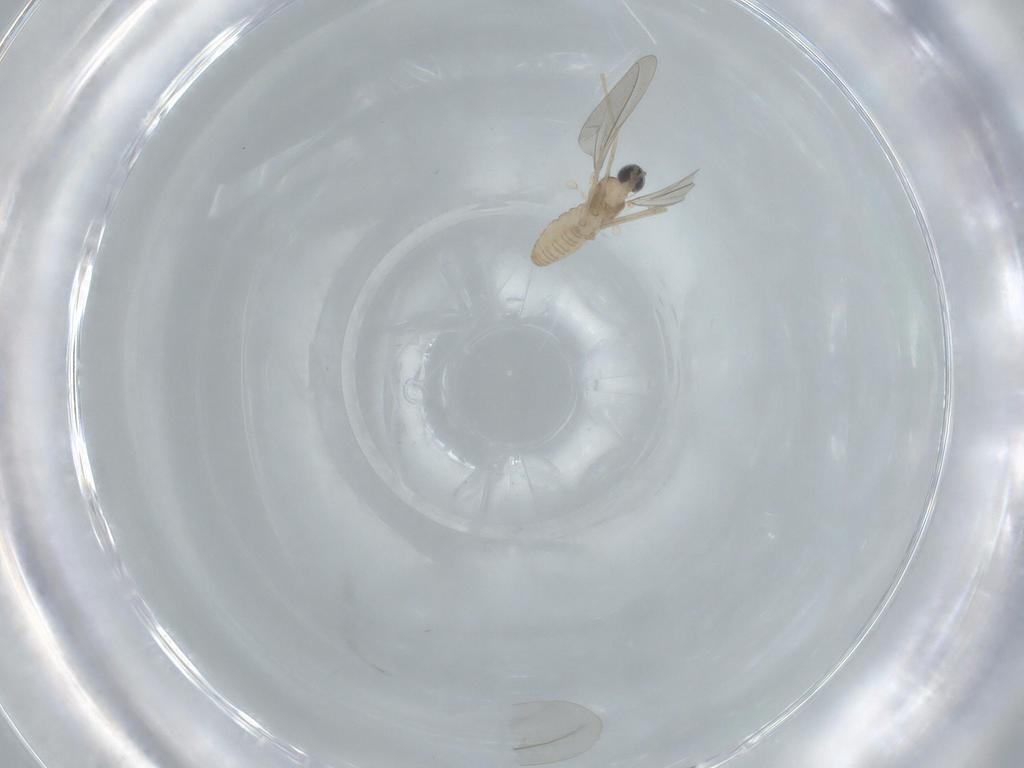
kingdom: Animalia
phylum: Arthropoda
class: Insecta
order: Diptera
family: Cecidomyiidae
